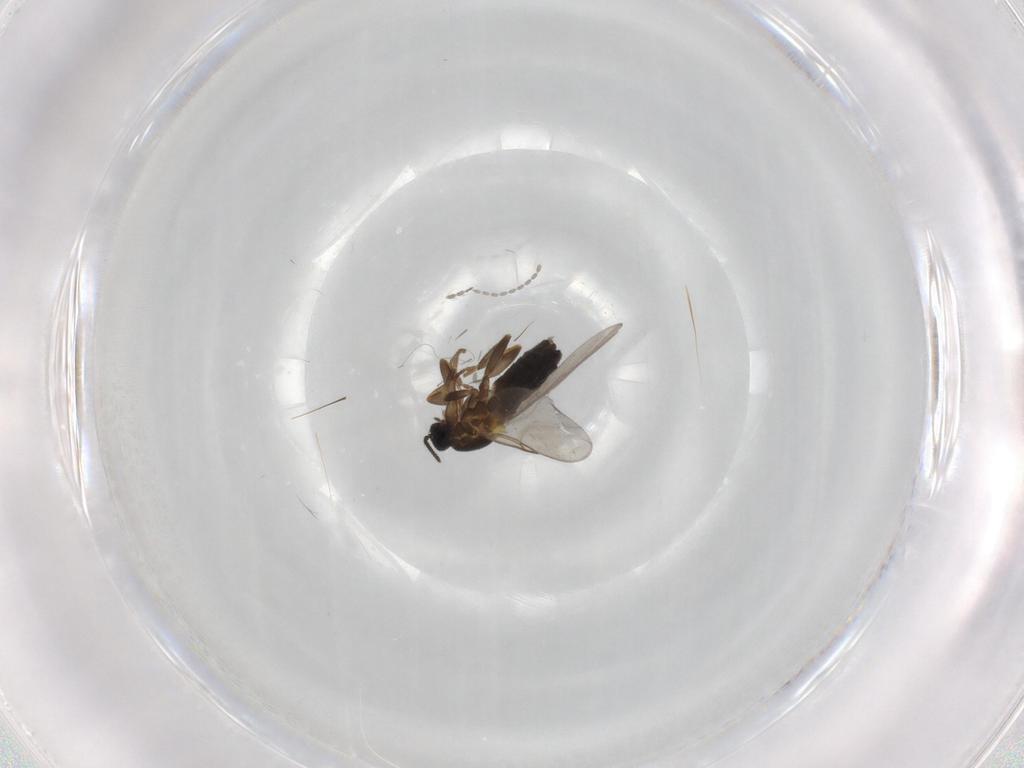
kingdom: Animalia
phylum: Arthropoda
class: Insecta
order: Diptera
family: Scatopsidae
